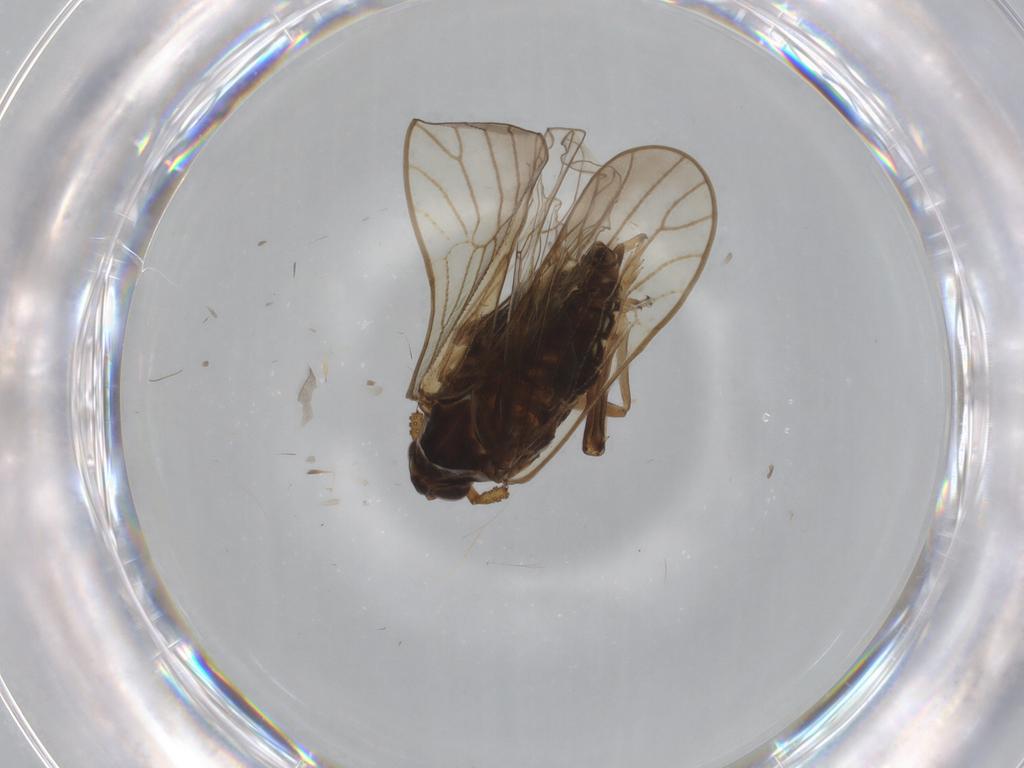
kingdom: Animalia
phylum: Arthropoda
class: Insecta
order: Hemiptera
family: Delphacidae
